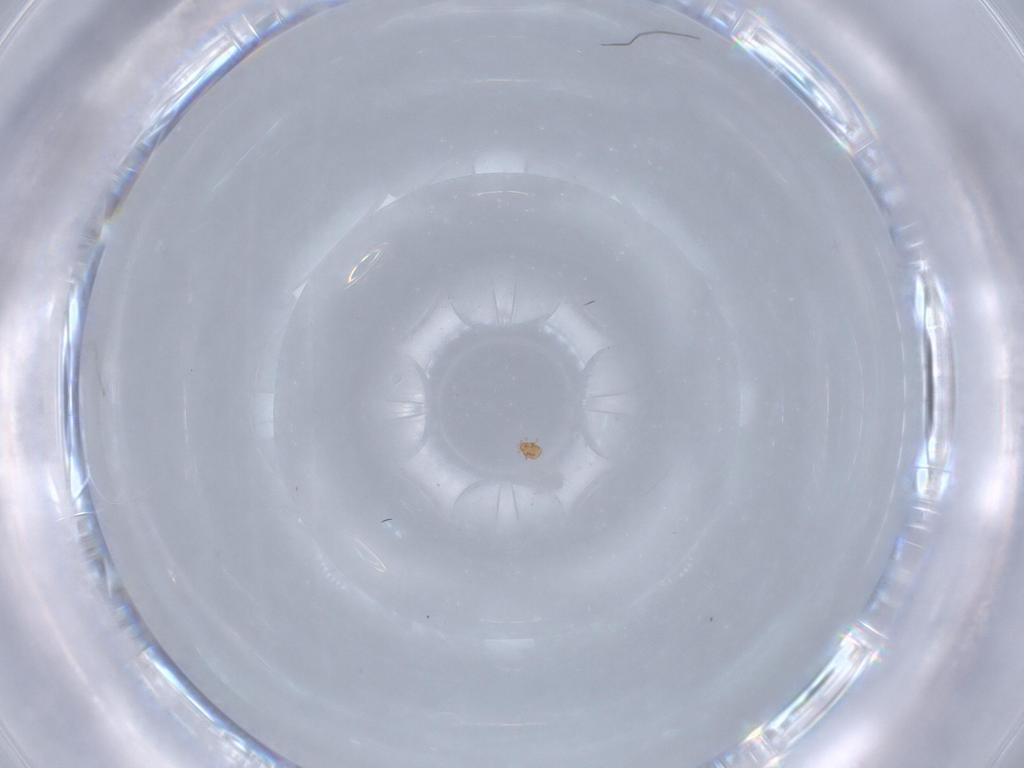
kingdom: Animalia
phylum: Arthropoda
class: Arachnida
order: Trombidiformes
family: Pygmephoridae
